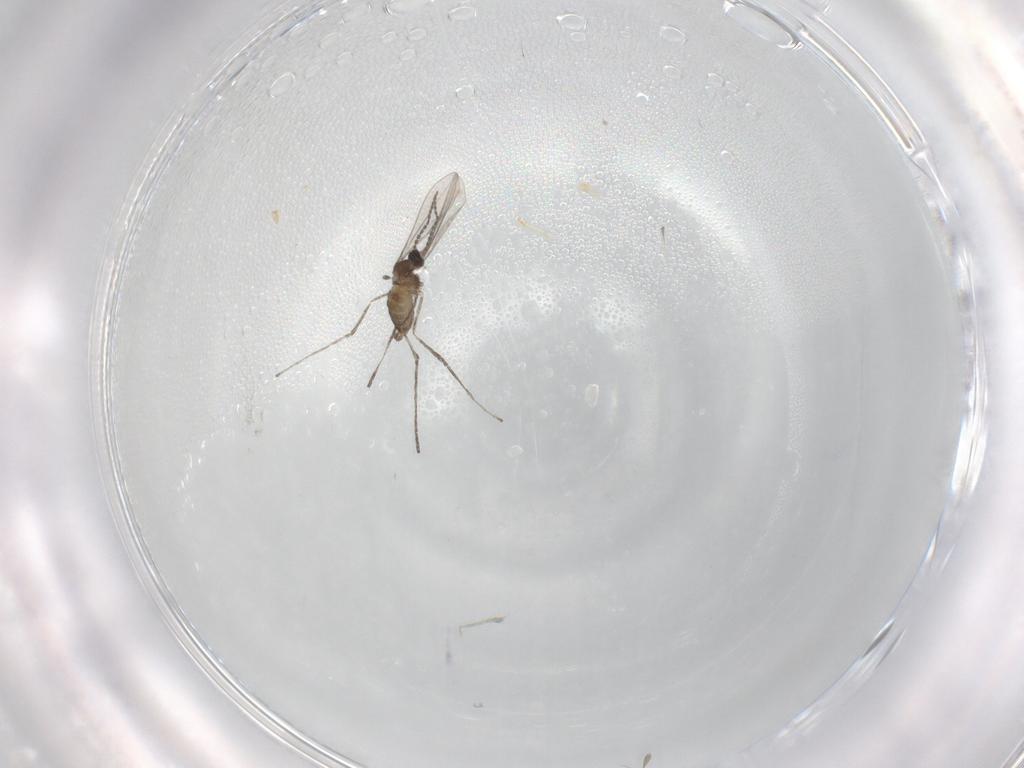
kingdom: Animalia
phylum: Arthropoda
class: Insecta
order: Diptera
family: Cecidomyiidae
